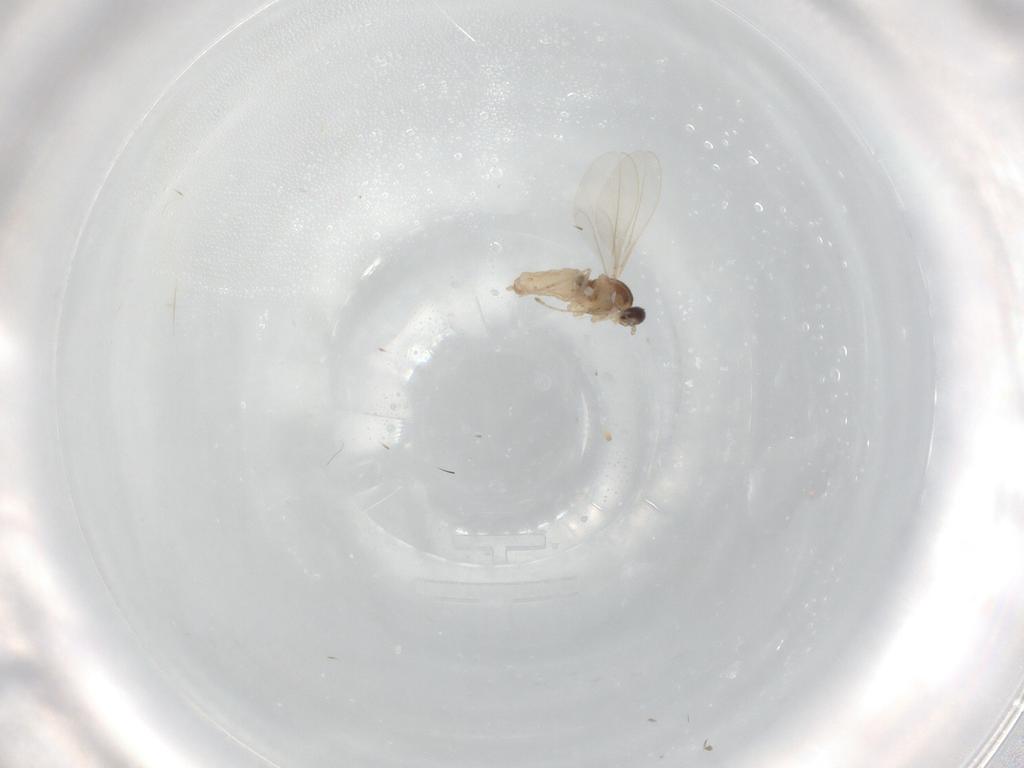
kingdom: Animalia
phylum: Arthropoda
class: Insecta
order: Diptera
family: Cecidomyiidae
